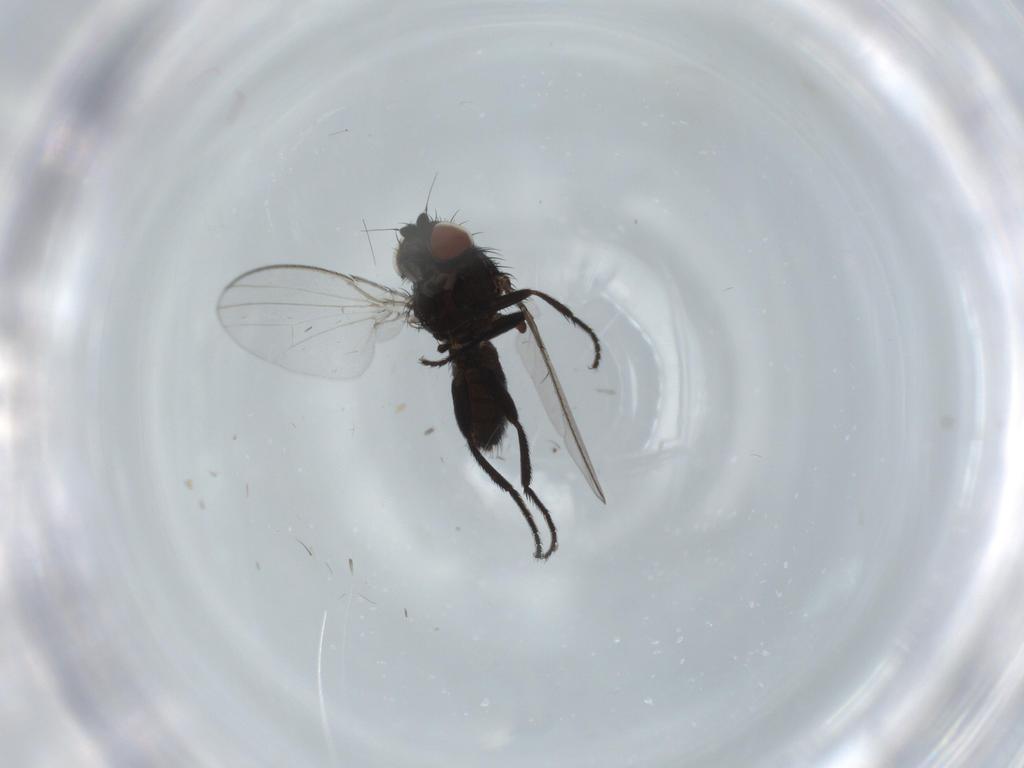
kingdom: Animalia
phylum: Arthropoda
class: Insecta
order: Diptera
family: Milichiidae
